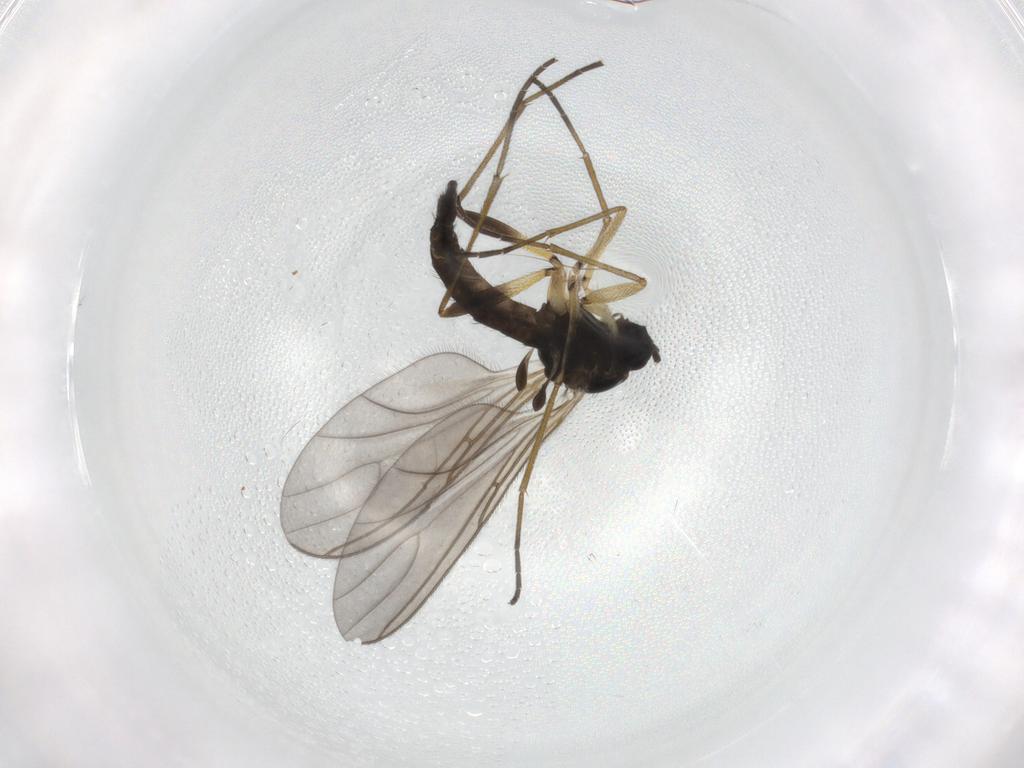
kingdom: Animalia
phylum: Arthropoda
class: Insecta
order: Diptera
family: Sciaridae
